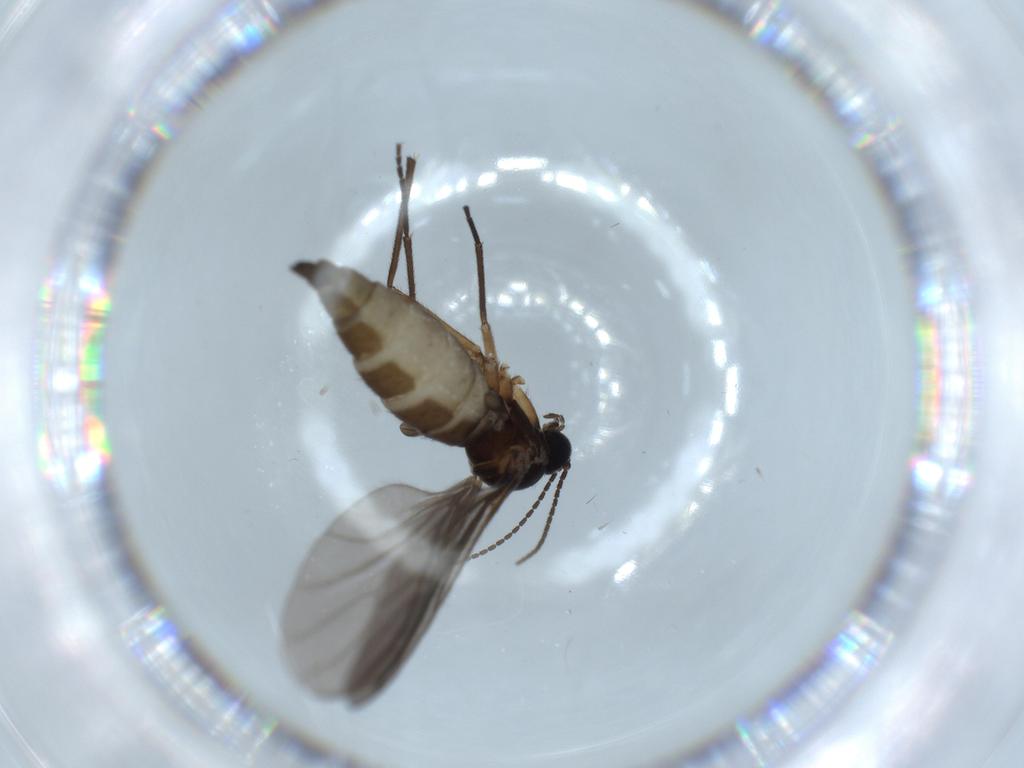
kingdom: Animalia
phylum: Arthropoda
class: Insecta
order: Diptera
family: Sciaridae
